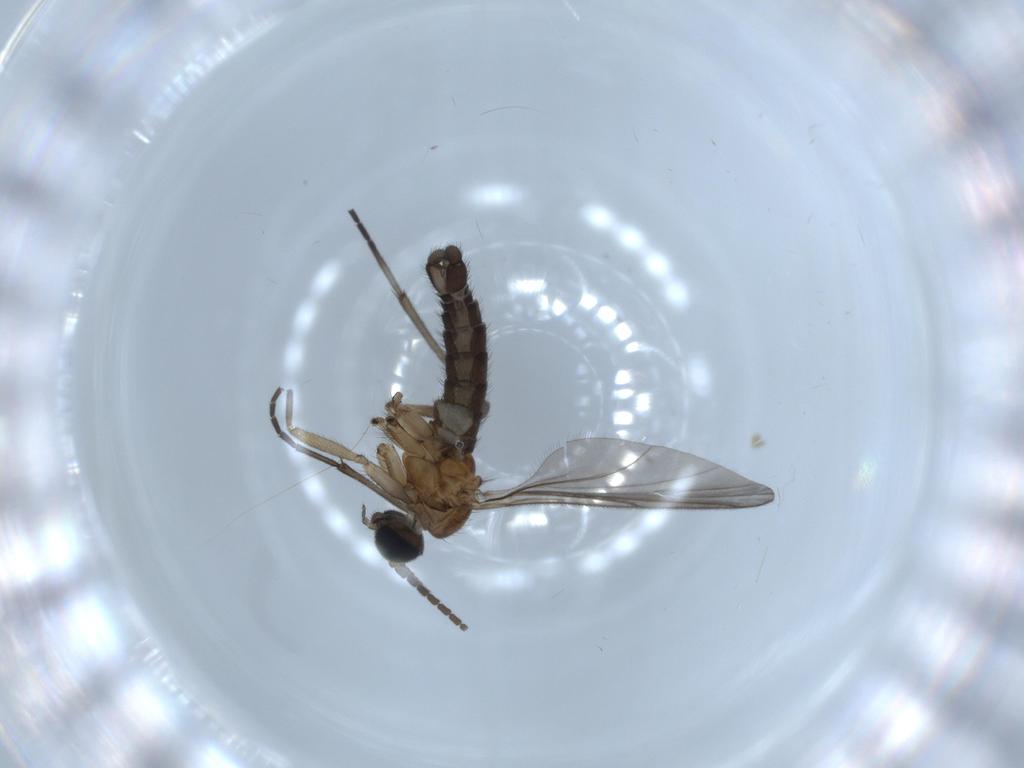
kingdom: Animalia
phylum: Arthropoda
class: Insecta
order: Diptera
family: Sciaridae
